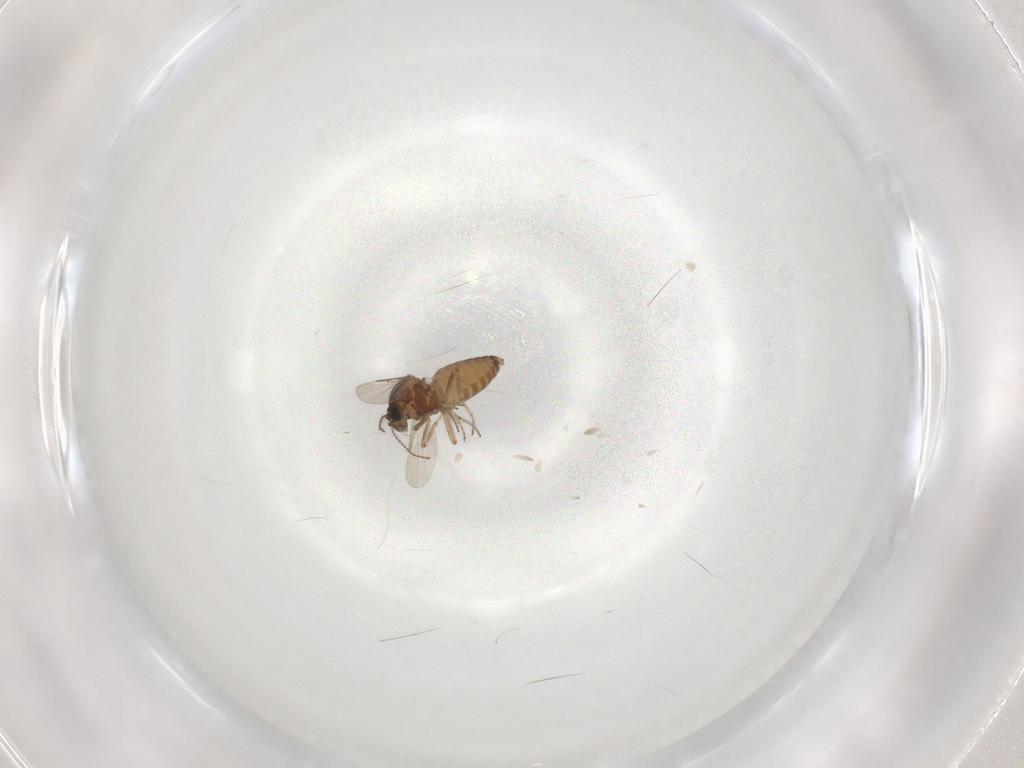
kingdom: Animalia
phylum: Arthropoda
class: Insecta
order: Diptera
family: Cecidomyiidae
